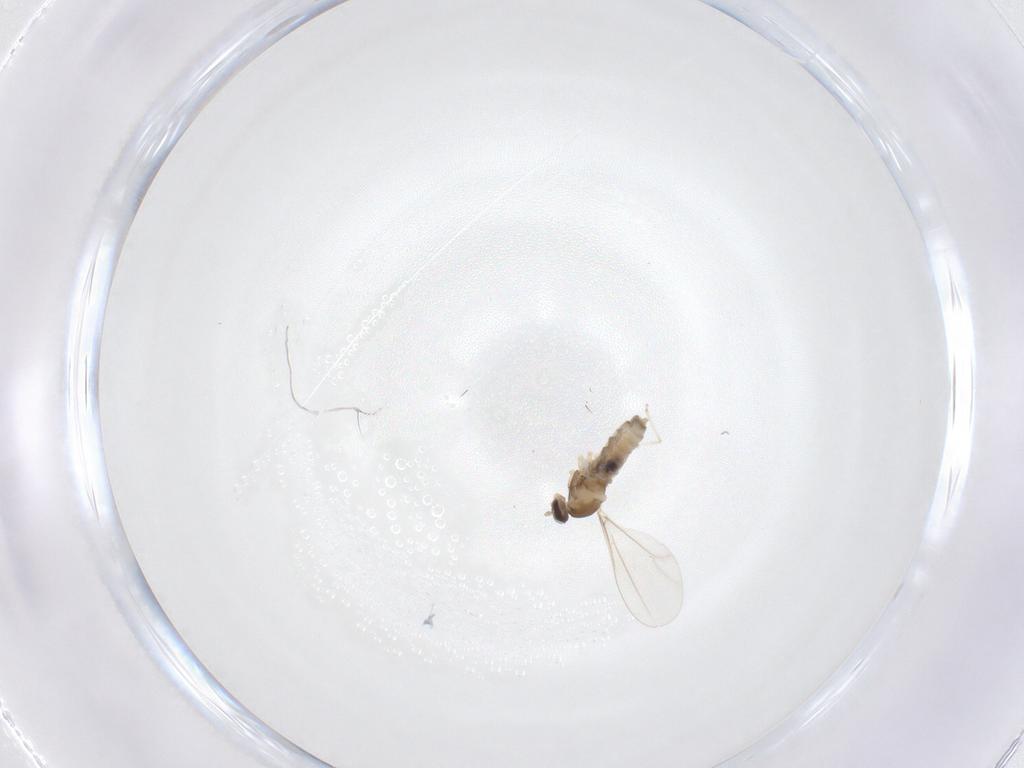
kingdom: Animalia
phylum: Arthropoda
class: Insecta
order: Diptera
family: Cecidomyiidae
